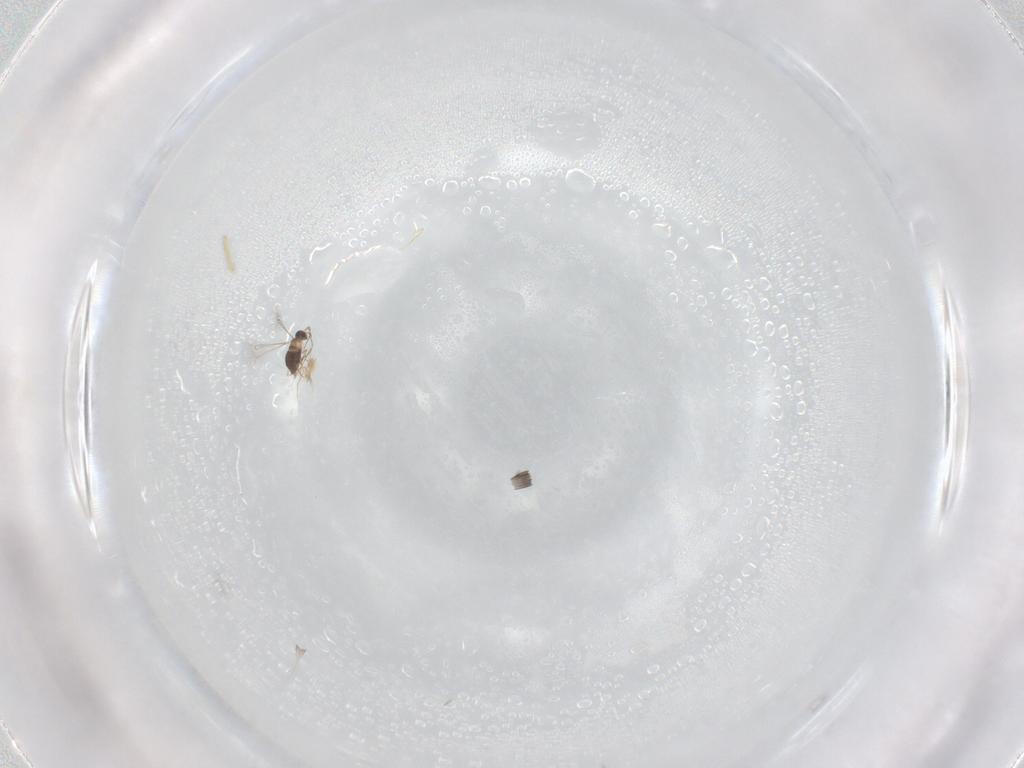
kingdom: Animalia
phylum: Arthropoda
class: Insecta
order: Hymenoptera
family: Mymaridae
